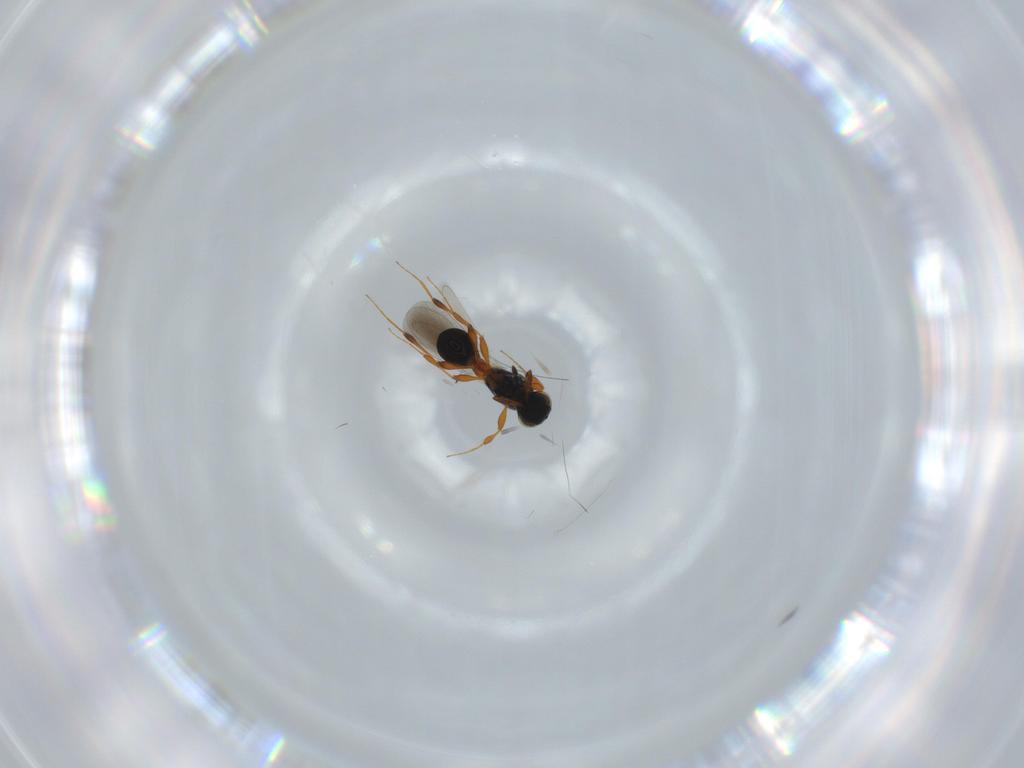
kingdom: Animalia
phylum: Arthropoda
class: Insecta
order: Hymenoptera
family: Platygastridae
